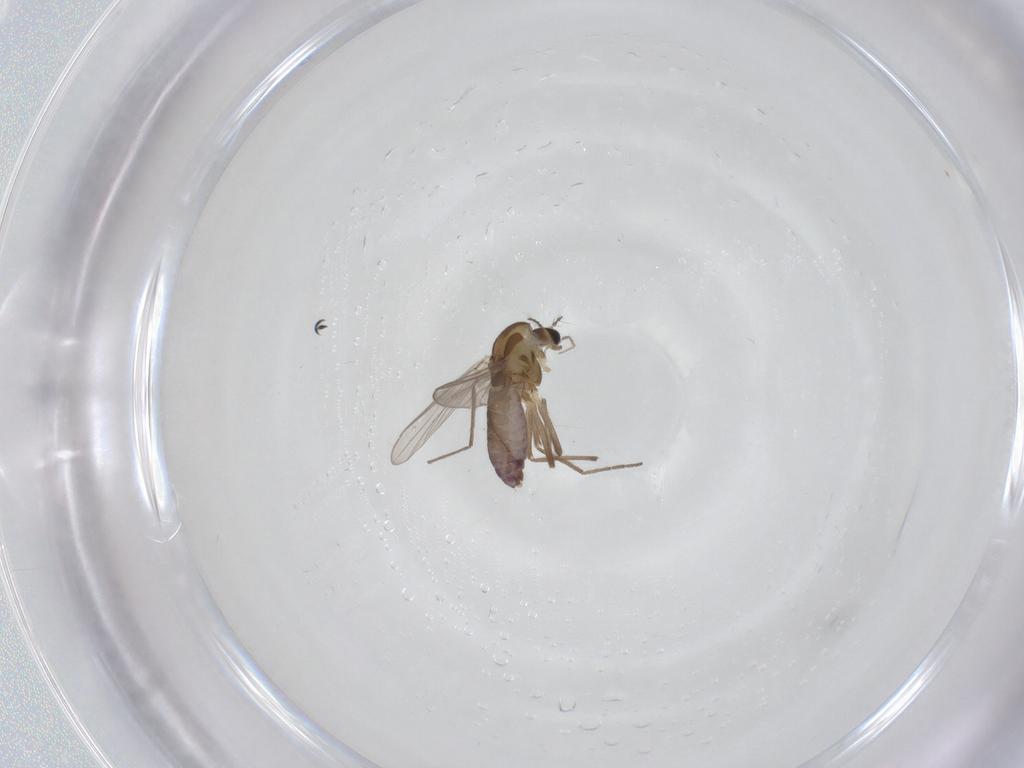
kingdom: Animalia
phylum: Arthropoda
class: Insecta
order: Diptera
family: Chironomidae
